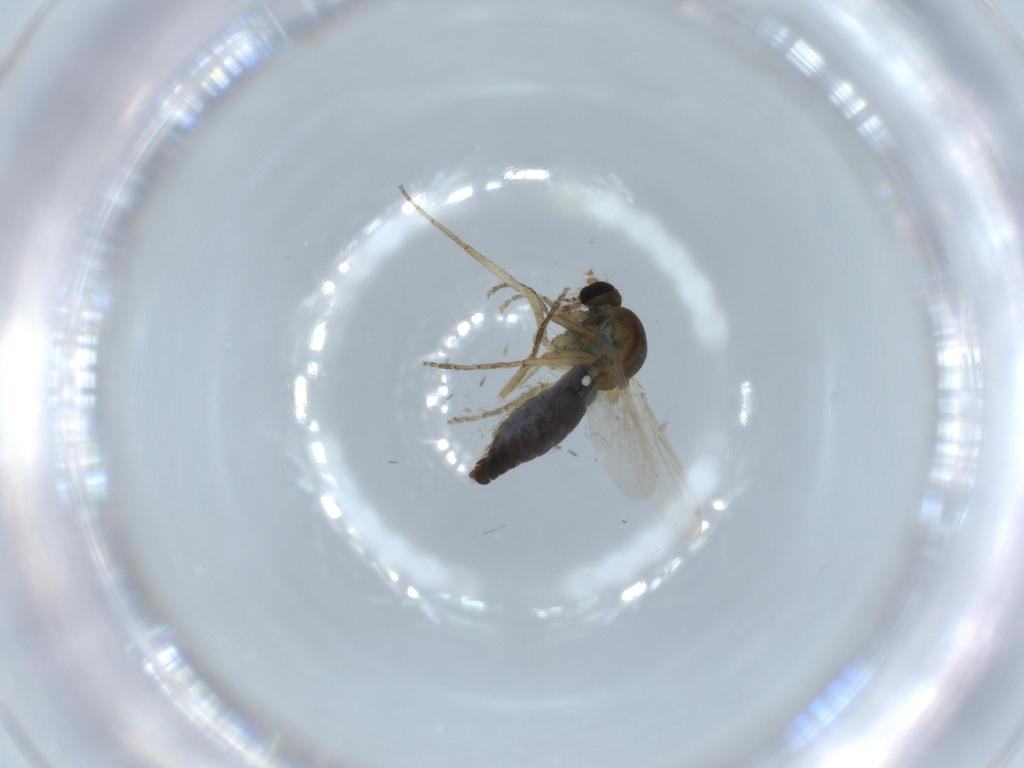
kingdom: Animalia
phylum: Arthropoda
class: Insecta
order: Diptera
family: Ceratopogonidae
